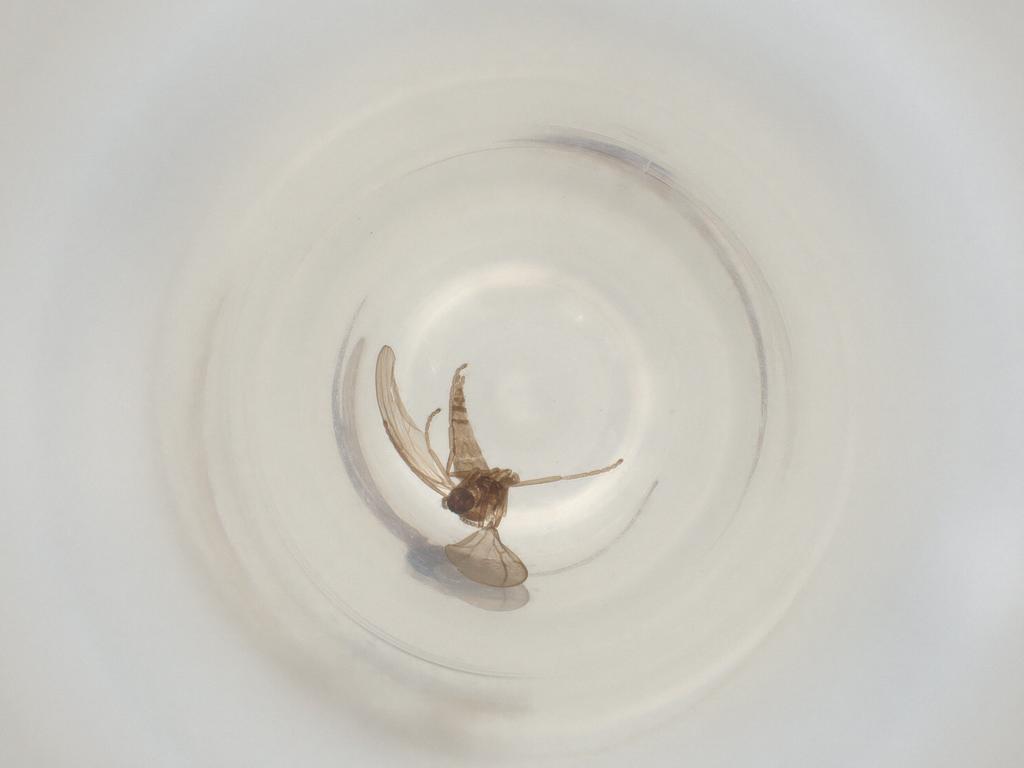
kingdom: Animalia
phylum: Arthropoda
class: Insecta
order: Diptera
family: Cecidomyiidae
